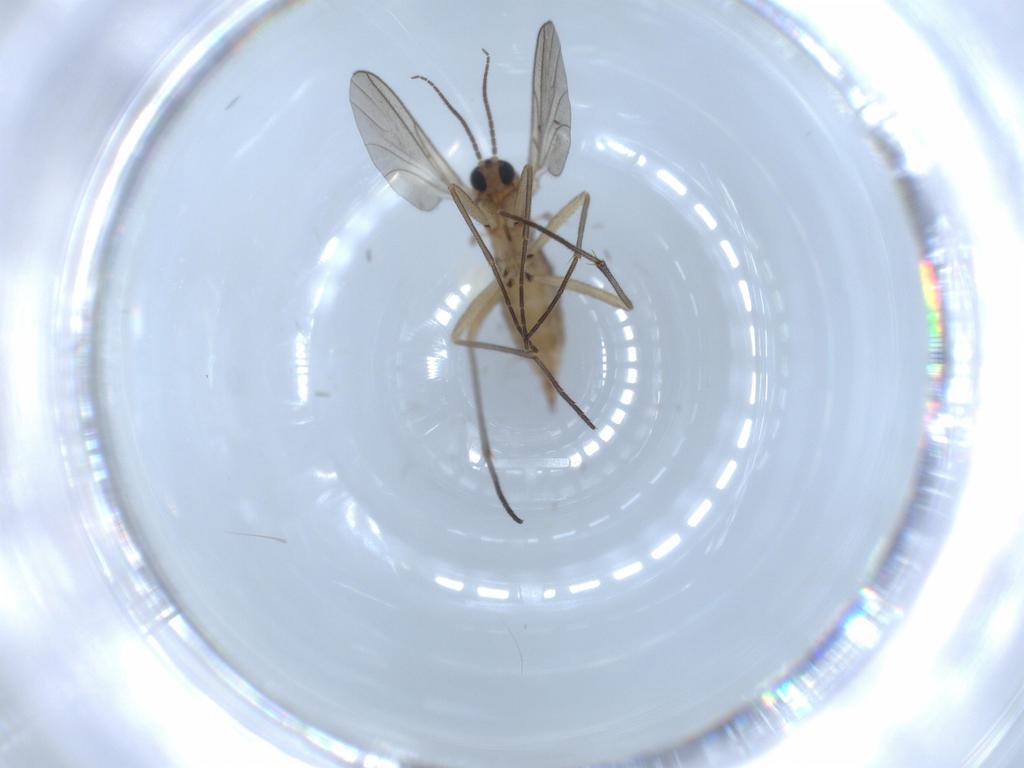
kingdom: Animalia
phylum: Arthropoda
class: Insecta
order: Diptera
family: Sciaridae
